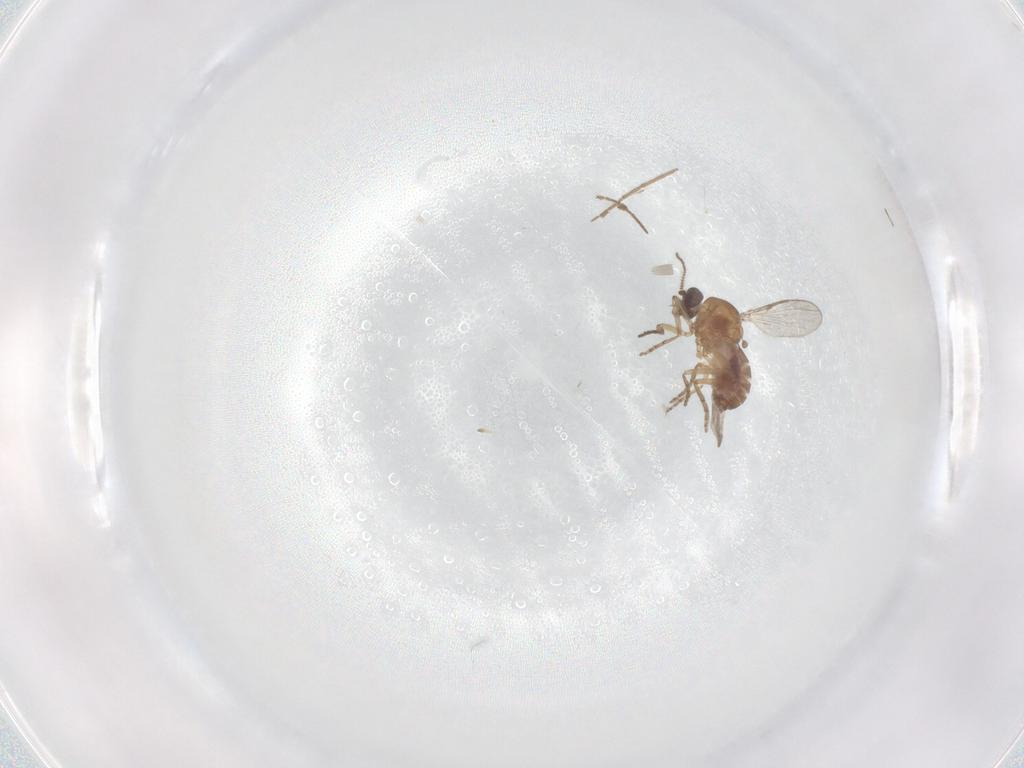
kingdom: Animalia
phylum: Arthropoda
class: Insecta
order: Diptera
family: Chironomidae
